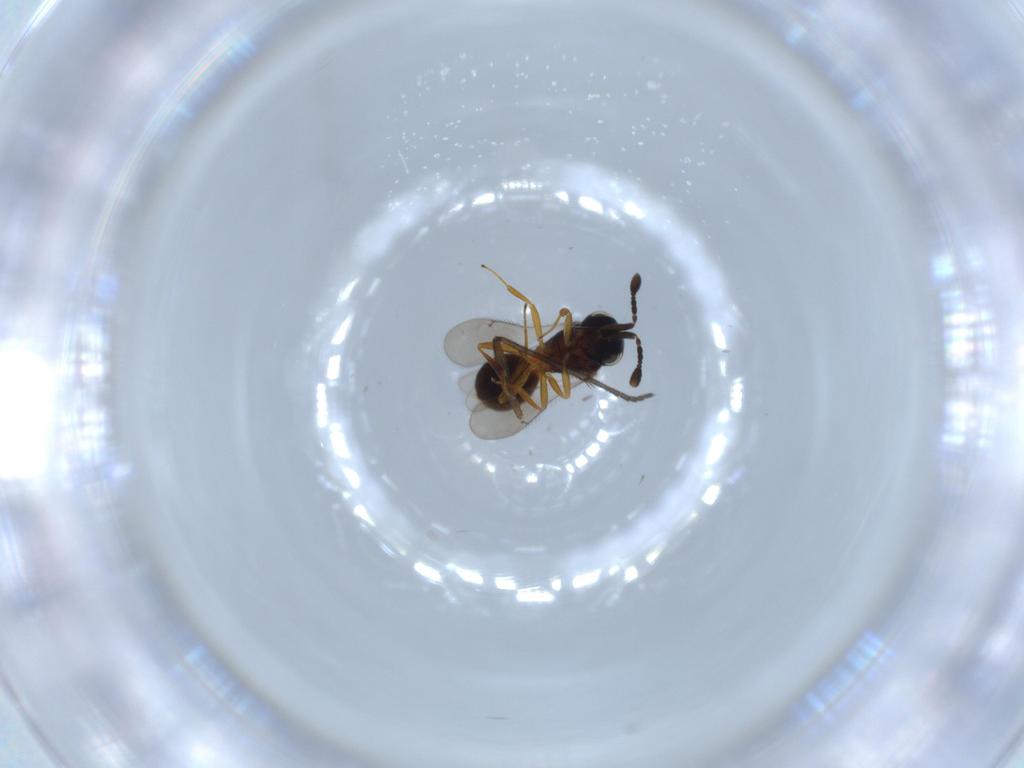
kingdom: Animalia
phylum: Arthropoda
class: Insecta
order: Hymenoptera
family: Scelionidae
